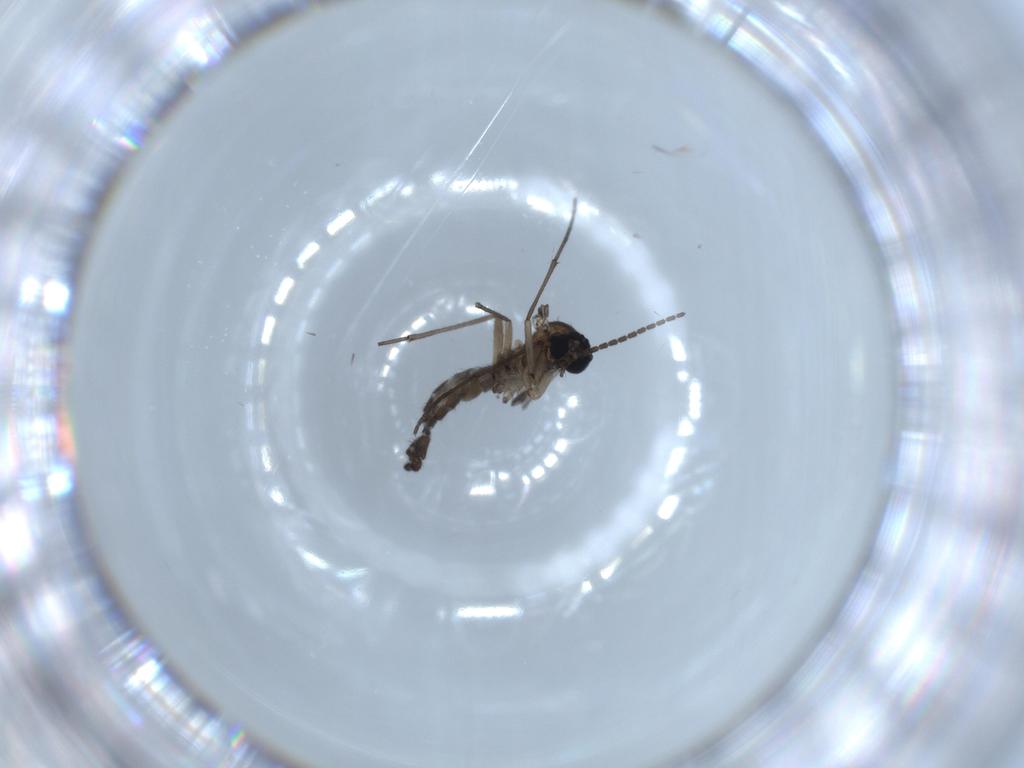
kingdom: Animalia
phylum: Arthropoda
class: Insecta
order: Diptera
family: Sciaridae
